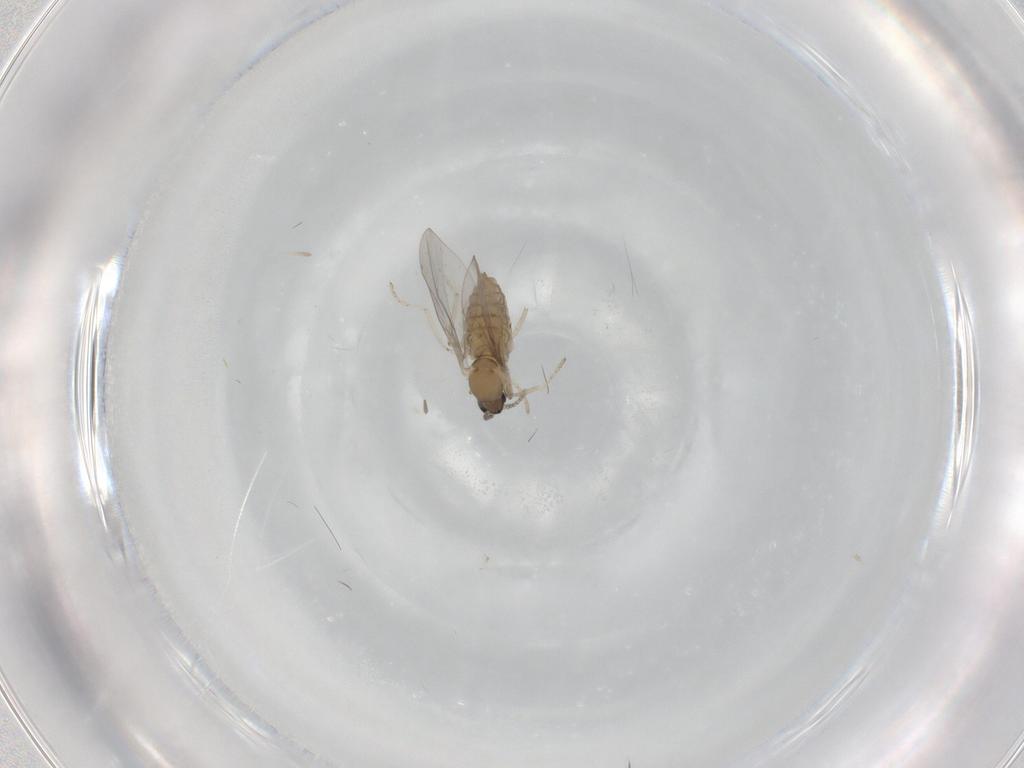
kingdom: Animalia
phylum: Arthropoda
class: Insecta
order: Diptera
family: Cecidomyiidae
